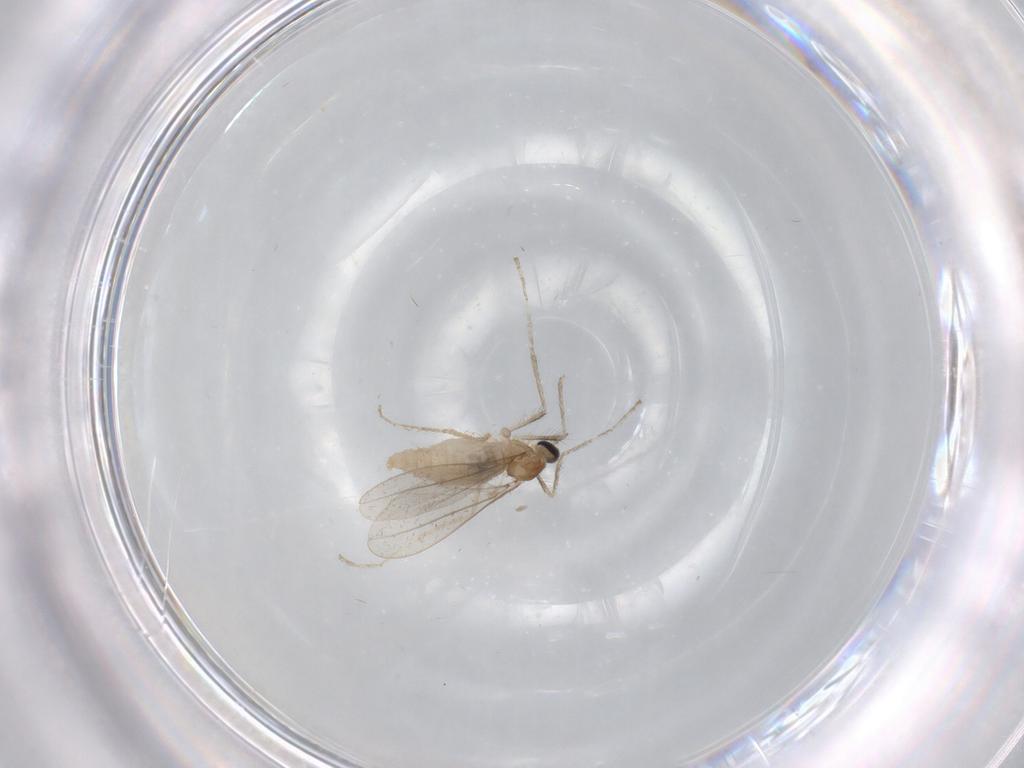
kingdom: Animalia
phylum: Arthropoda
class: Insecta
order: Diptera
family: Cecidomyiidae
